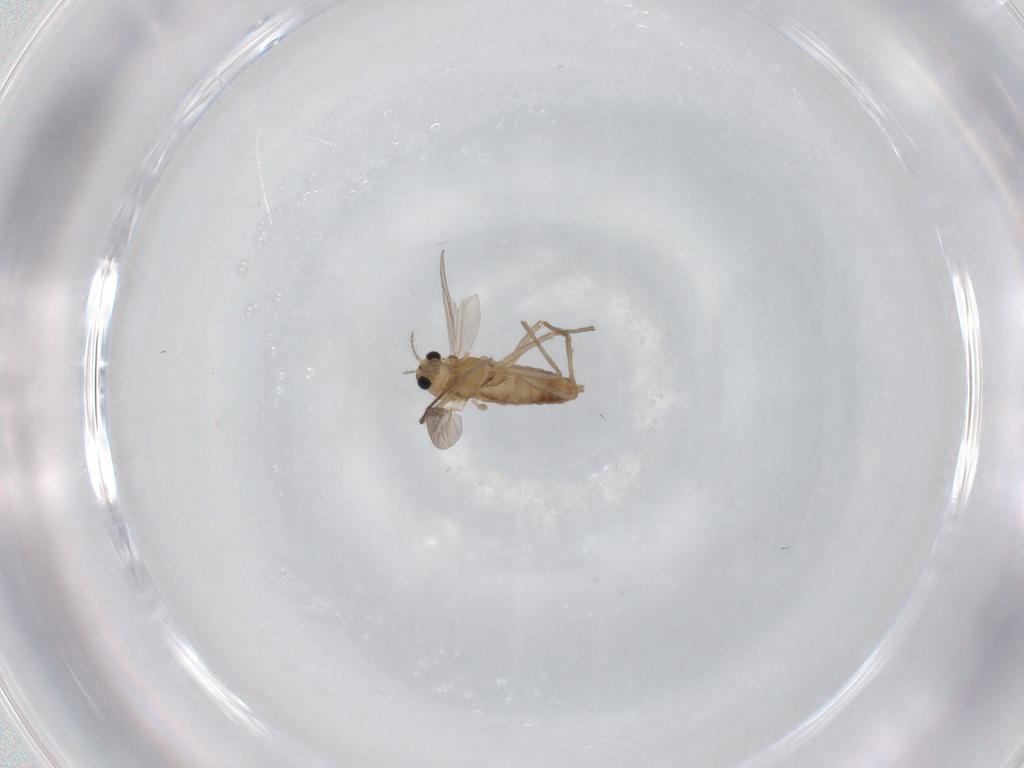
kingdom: Animalia
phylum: Arthropoda
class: Insecta
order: Diptera
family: Chironomidae
